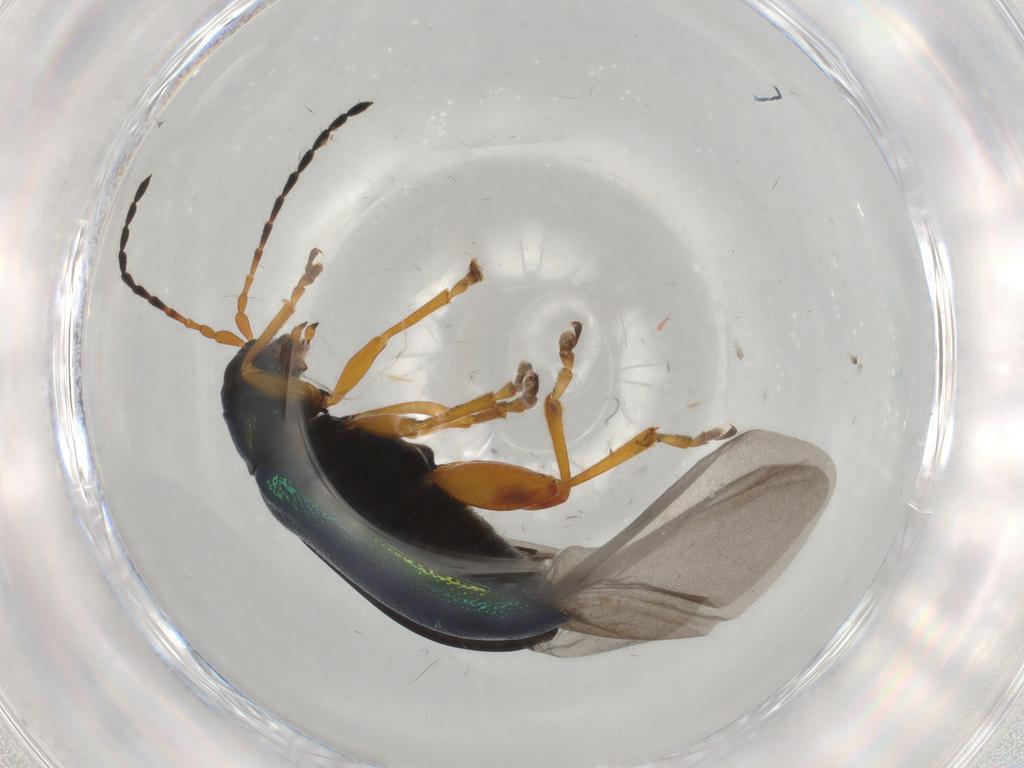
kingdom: Animalia
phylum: Arthropoda
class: Insecta
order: Coleoptera
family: Chrysomelidae
